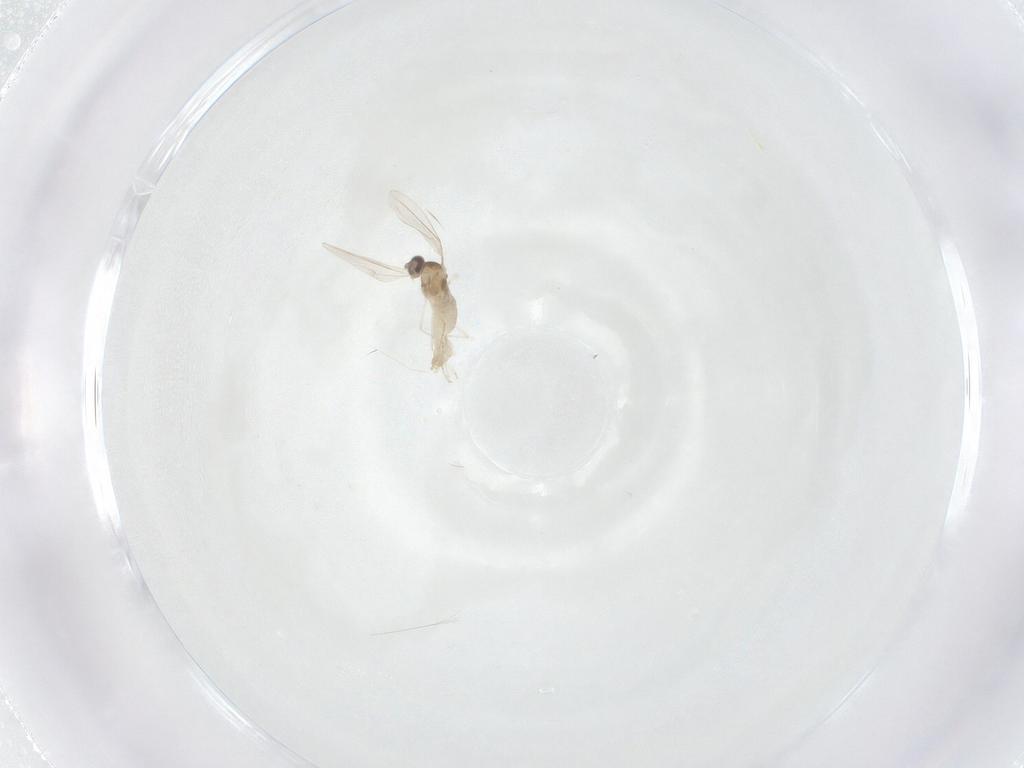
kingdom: Animalia
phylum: Arthropoda
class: Insecta
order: Diptera
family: Cecidomyiidae
